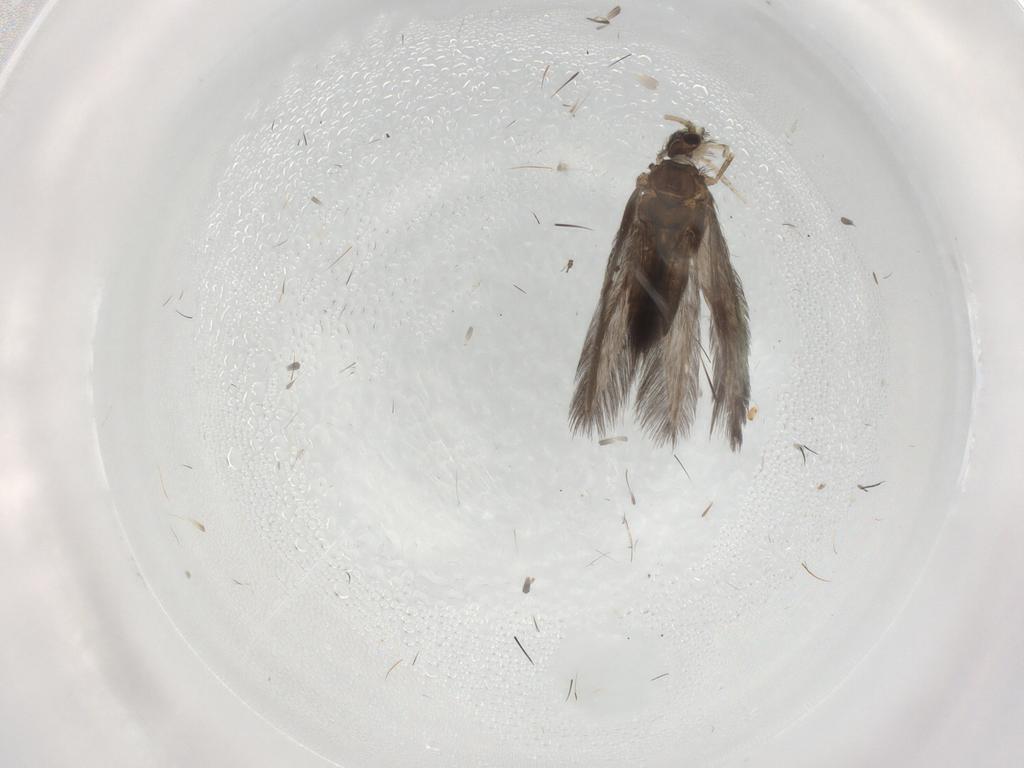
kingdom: Animalia
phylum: Arthropoda
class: Insecta
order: Trichoptera
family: Hydroptilidae
